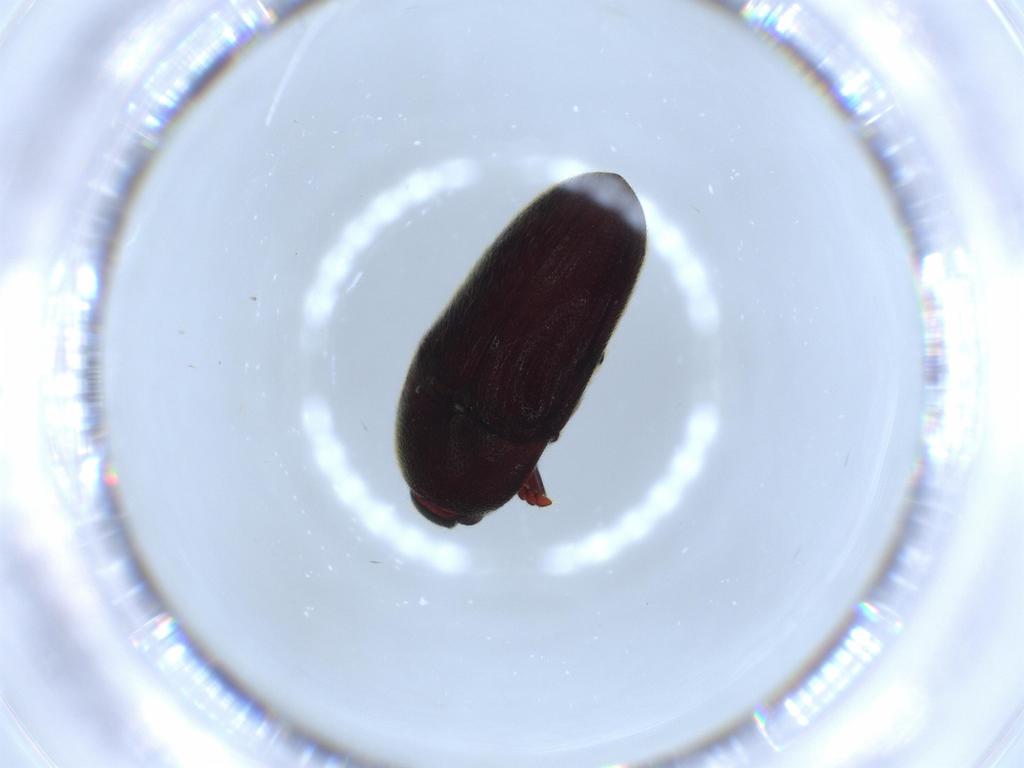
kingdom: Animalia
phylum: Arthropoda
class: Insecta
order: Coleoptera
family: Throscidae
